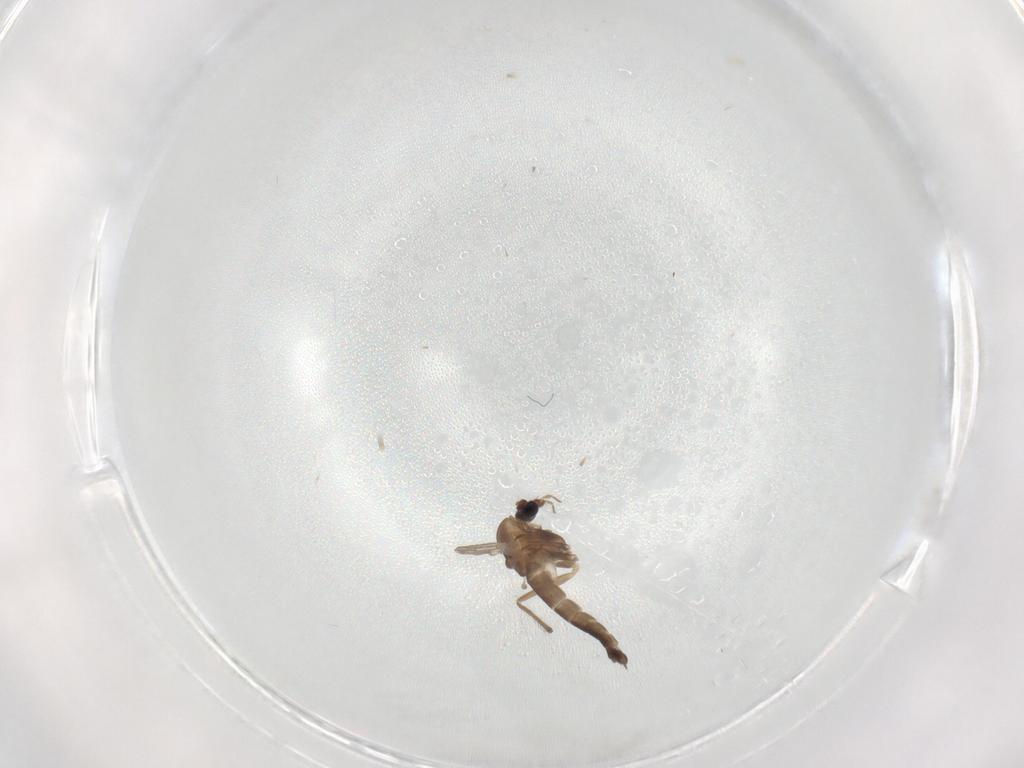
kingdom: Animalia
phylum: Arthropoda
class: Insecta
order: Diptera
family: Chironomidae
